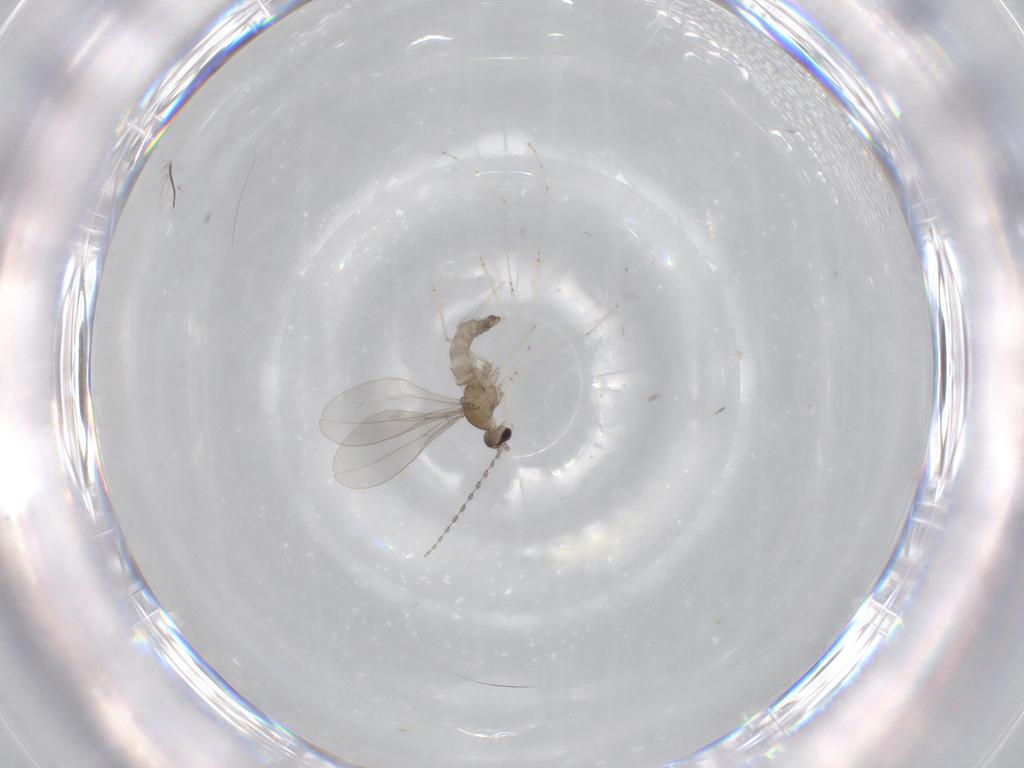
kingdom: Animalia
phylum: Arthropoda
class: Insecta
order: Diptera
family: Cecidomyiidae
